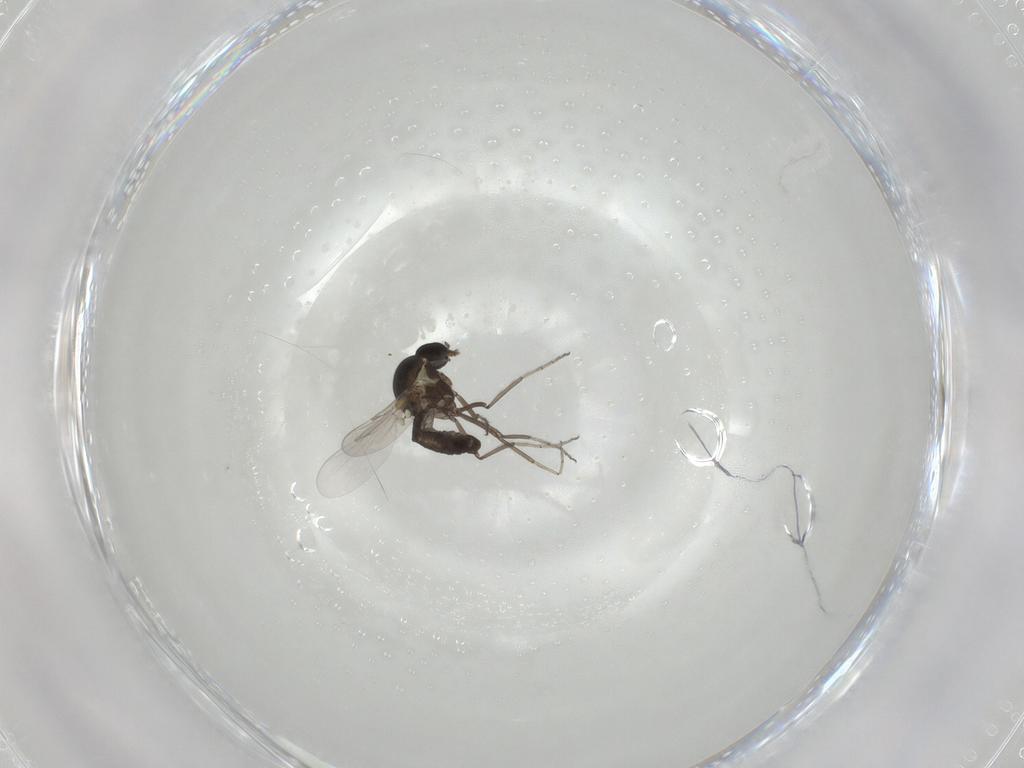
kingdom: Animalia
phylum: Arthropoda
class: Insecta
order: Diptera
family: Ceratopogonidae
